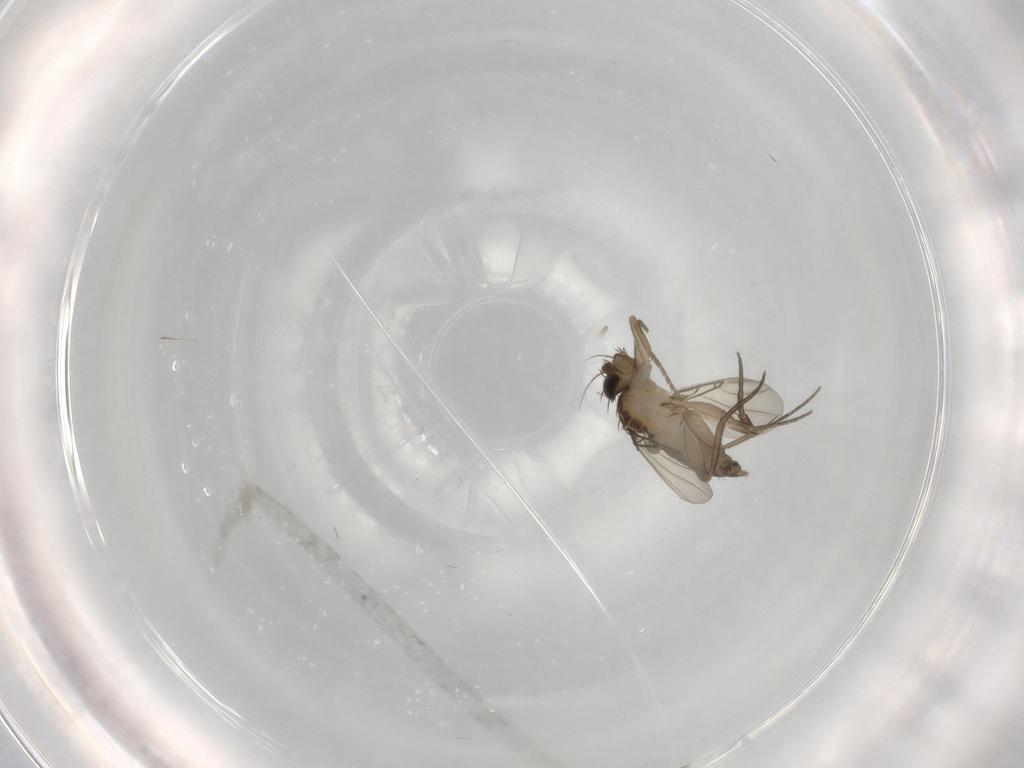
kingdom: Animalia
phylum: Arthropoda
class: Insecta
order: Diptera
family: Phoridae
